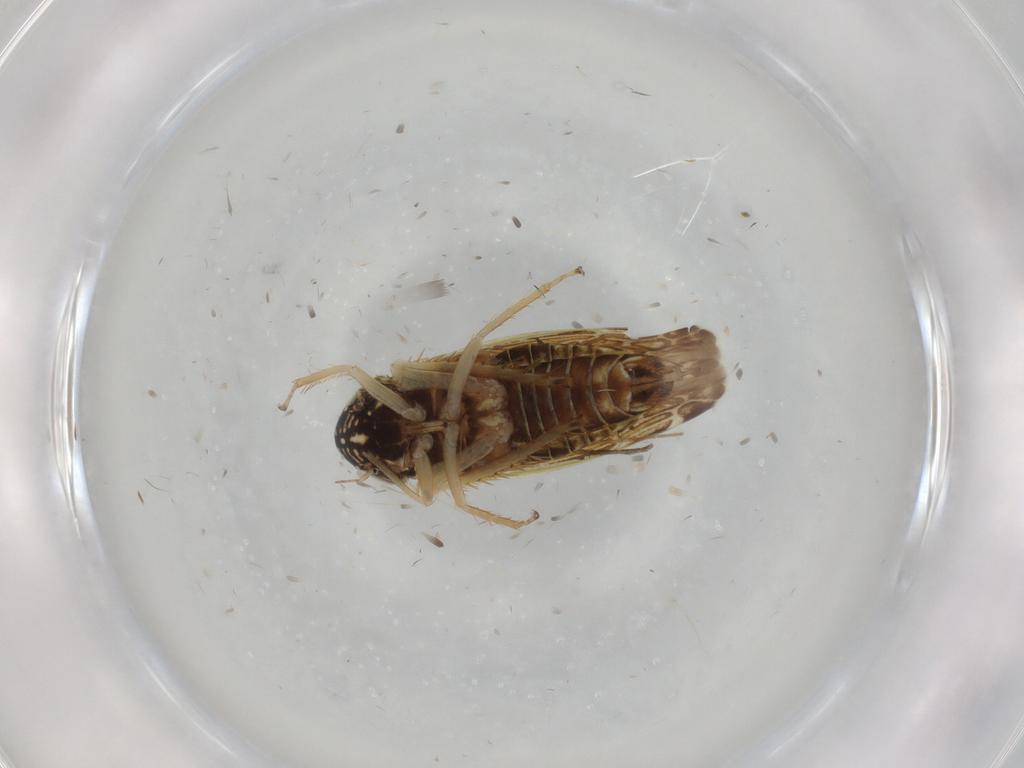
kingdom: Animalia
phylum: Arthropoda
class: Insecta
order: Hemiptera
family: Cicadellidae
